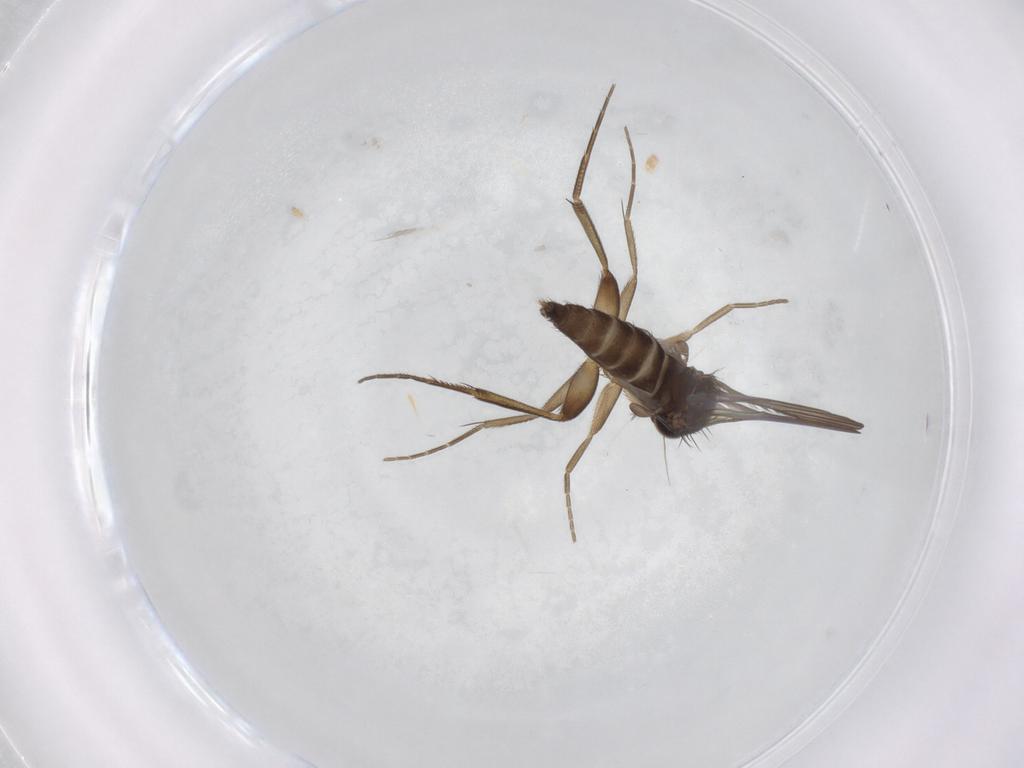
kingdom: Animalia
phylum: Arthropoda
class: Insecta
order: Diptera
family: Phoridae
